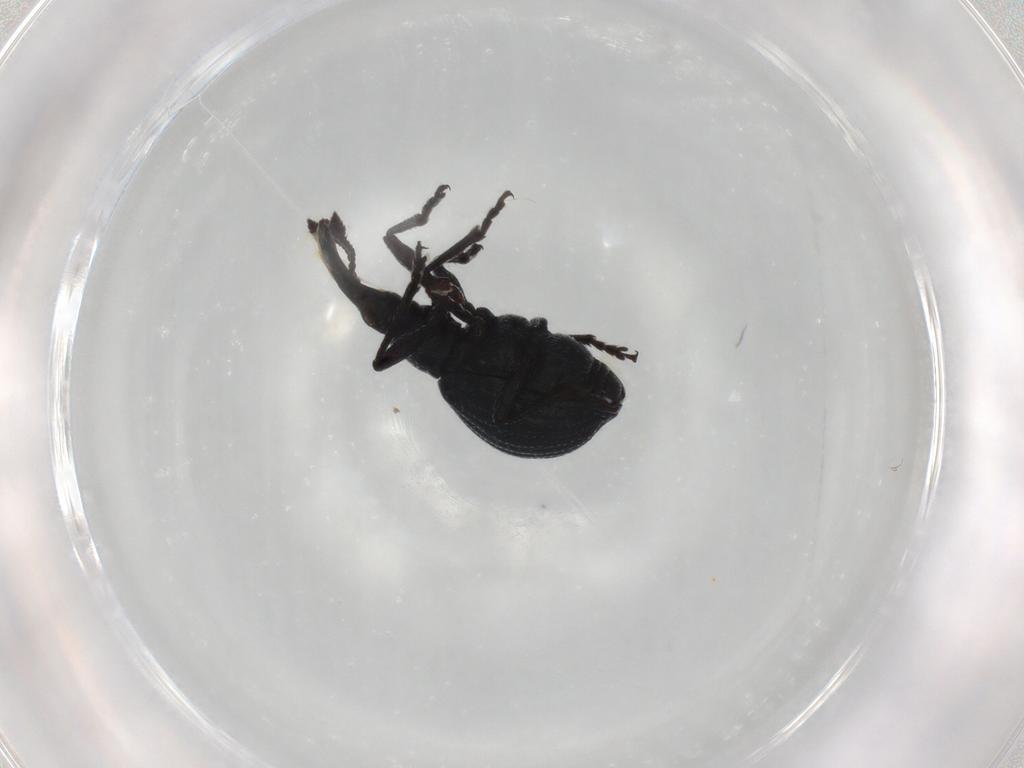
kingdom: Animalia
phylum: Arthropoda
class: Insecta
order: Coleoptera
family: Brentidae
